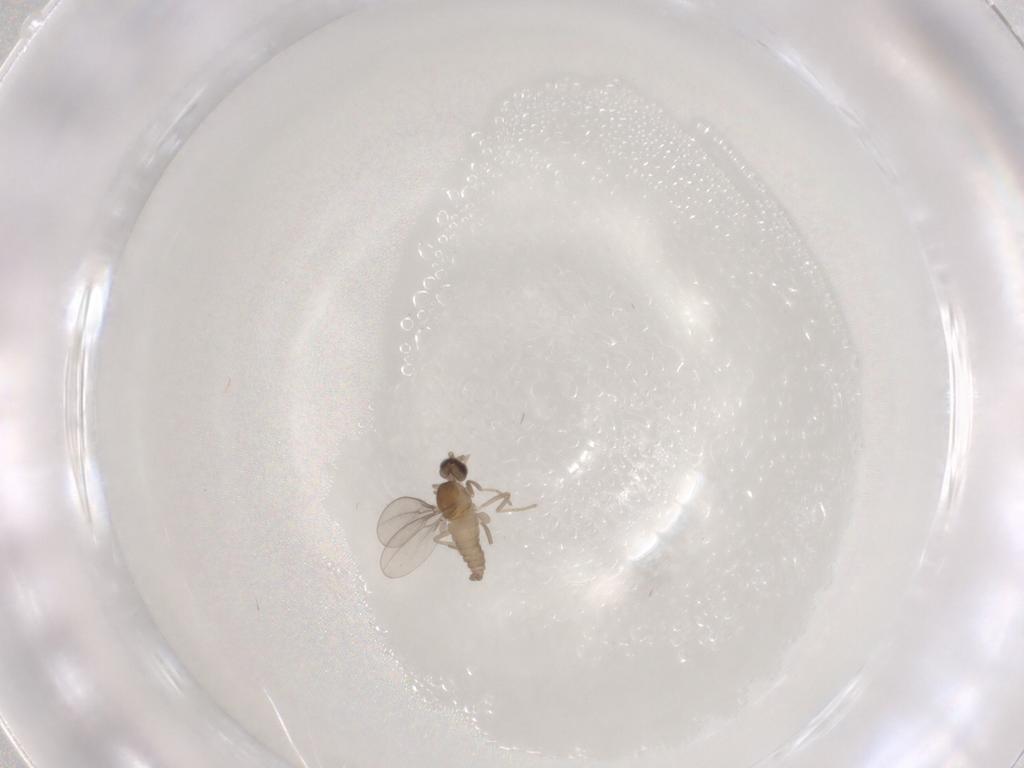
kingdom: Animalia
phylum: Arthropoda
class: Insecta
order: Diptera
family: Cecidomyiidae
